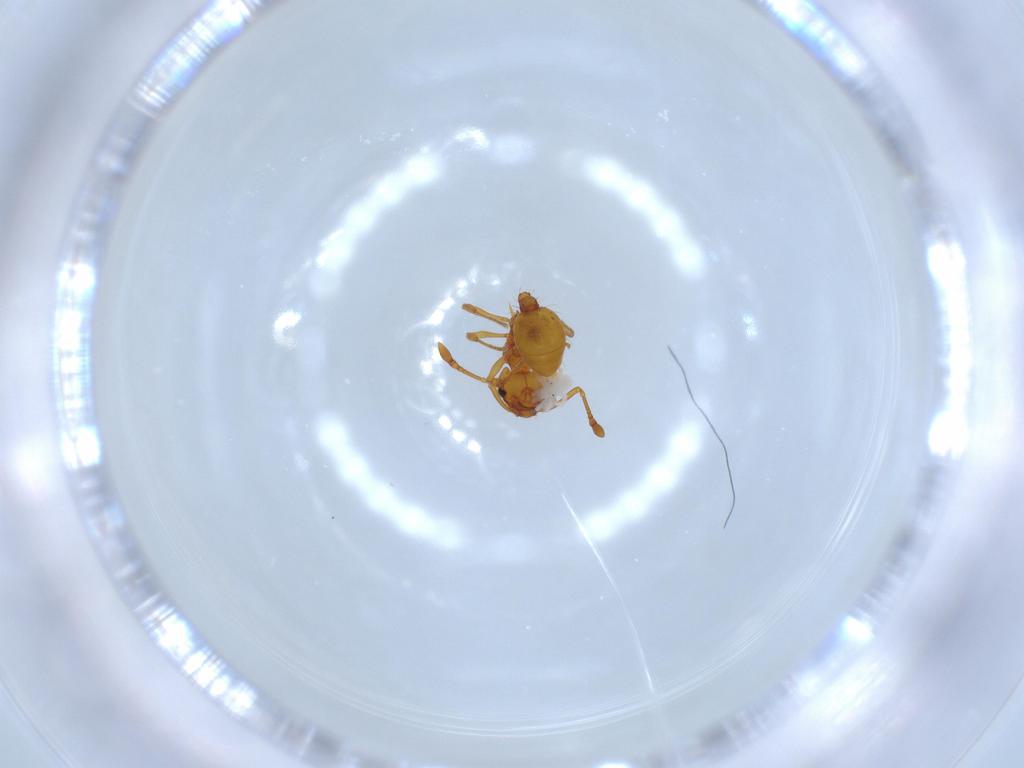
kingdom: Animalia
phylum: Arthropoda
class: Insecta
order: Hymenoptera
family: Formicidae
